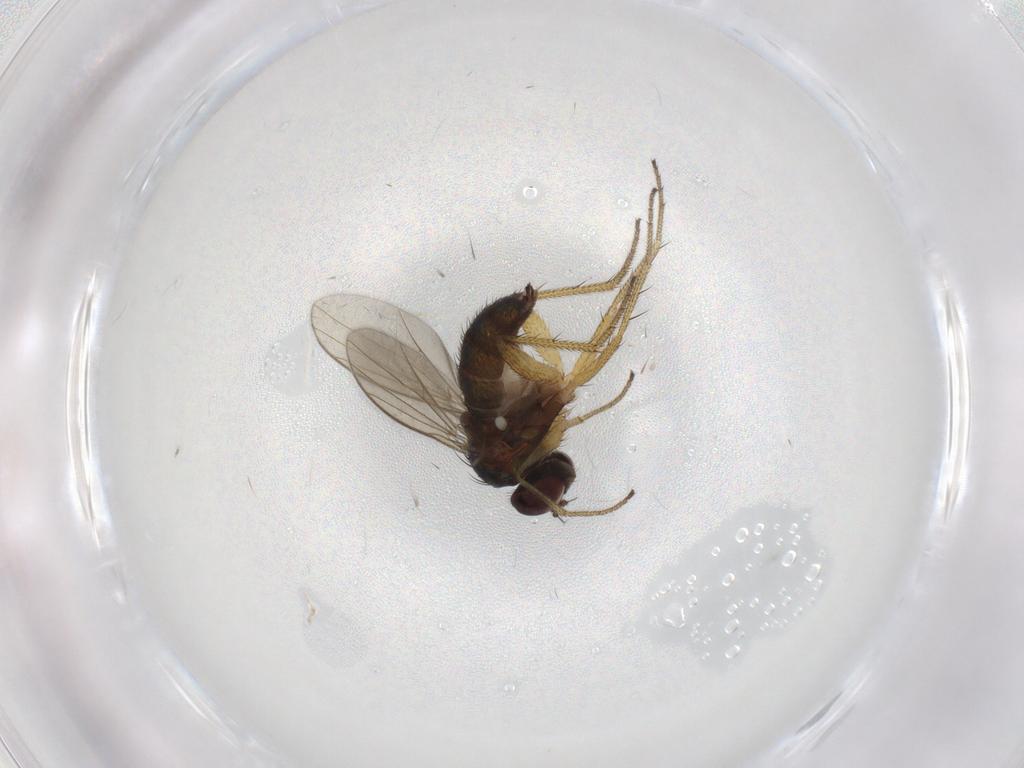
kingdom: Animalia
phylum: Arthropoda
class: Insecta
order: Diptera
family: Dolichopodidae
